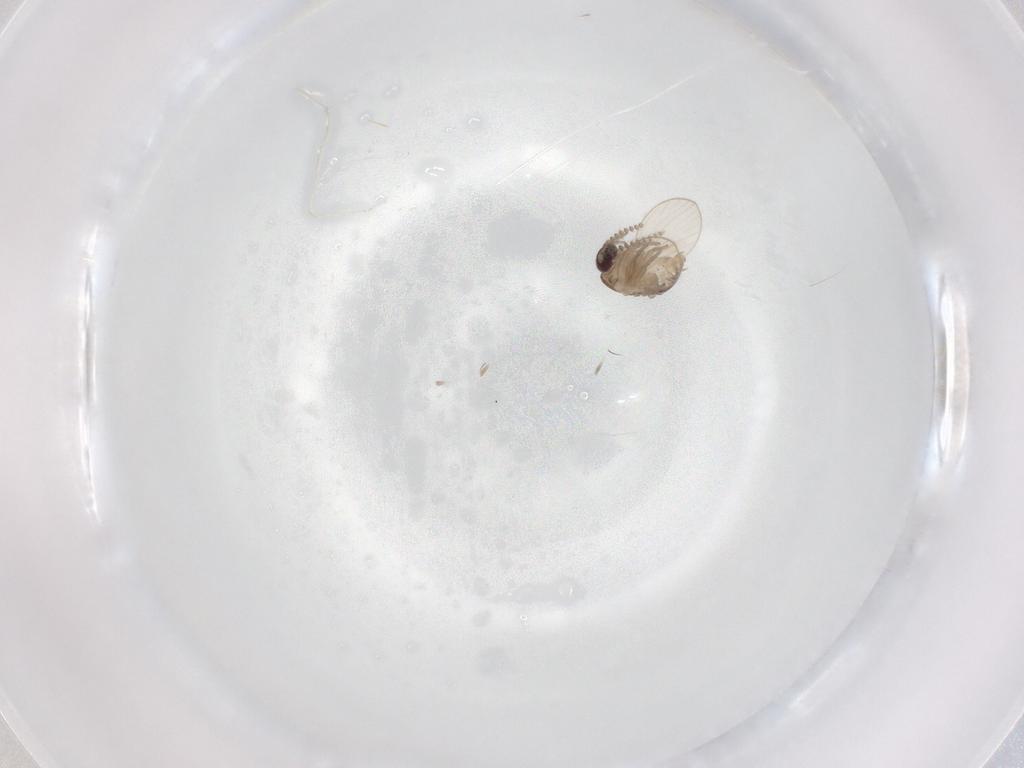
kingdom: Animalia
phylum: Arthropoda
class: Insecta
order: Diptera
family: Psychodidae
